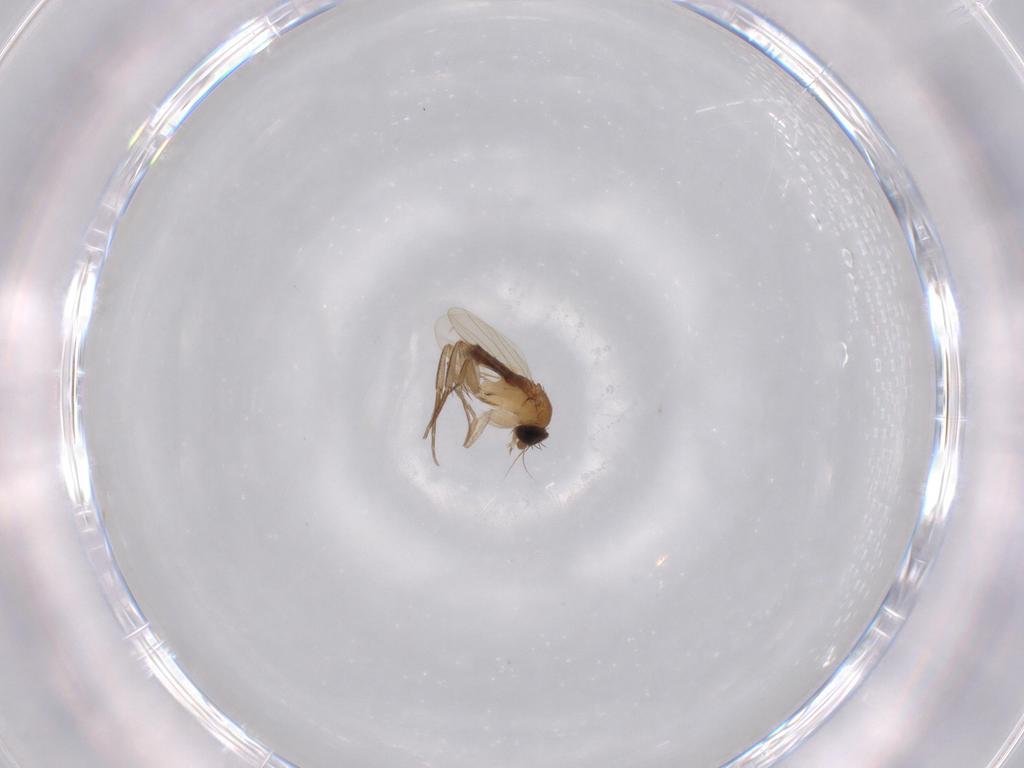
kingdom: Animalia
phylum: Arthropoda
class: Insecta
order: Diptera
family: Phoridae
